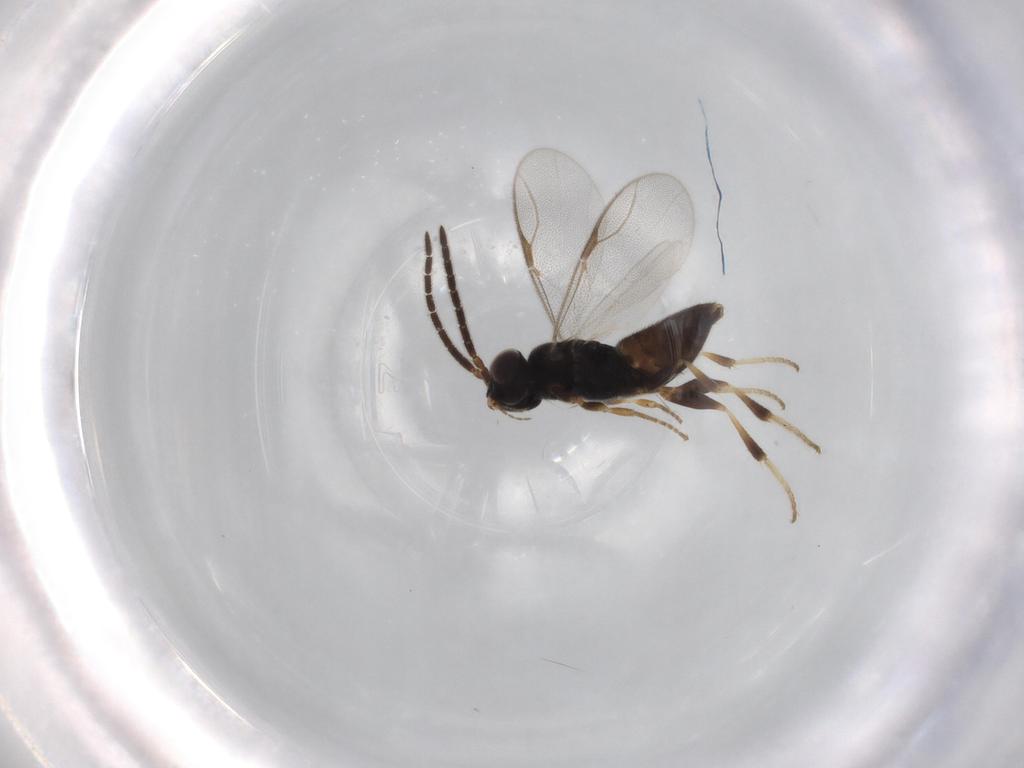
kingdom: Animalia
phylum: Arthropoda
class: Insecta
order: Hymenoptera
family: Dryinidae
